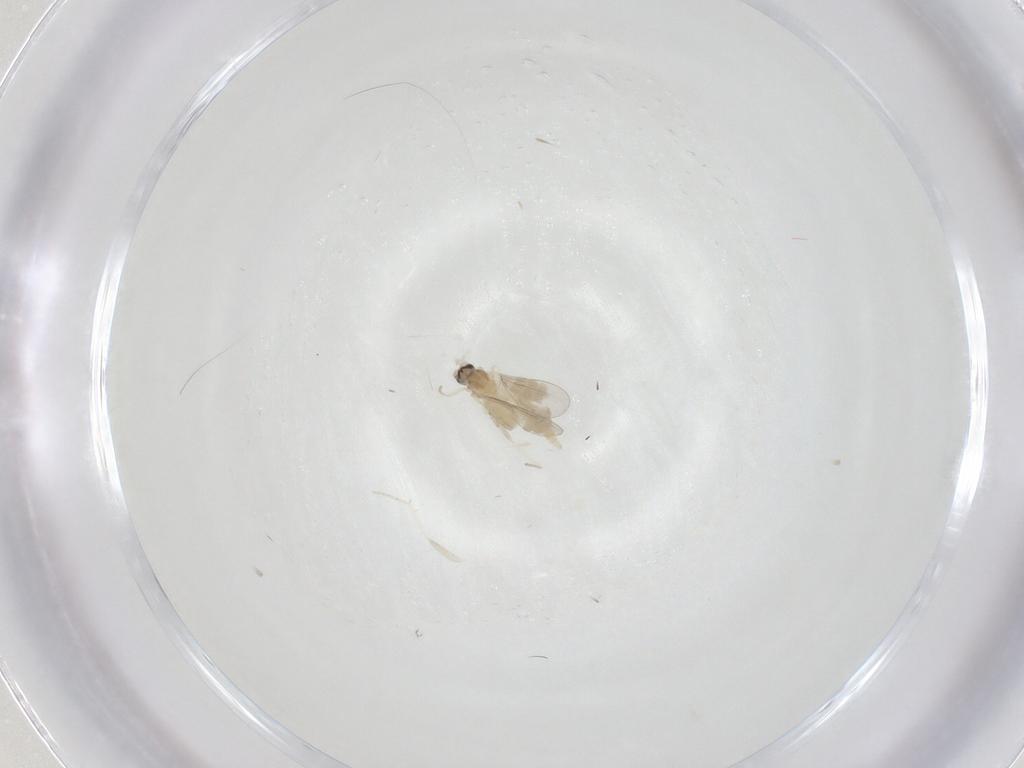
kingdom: Animalia
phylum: Arthropoda
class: Insecta
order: Diptera
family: Cecidomyiidae
